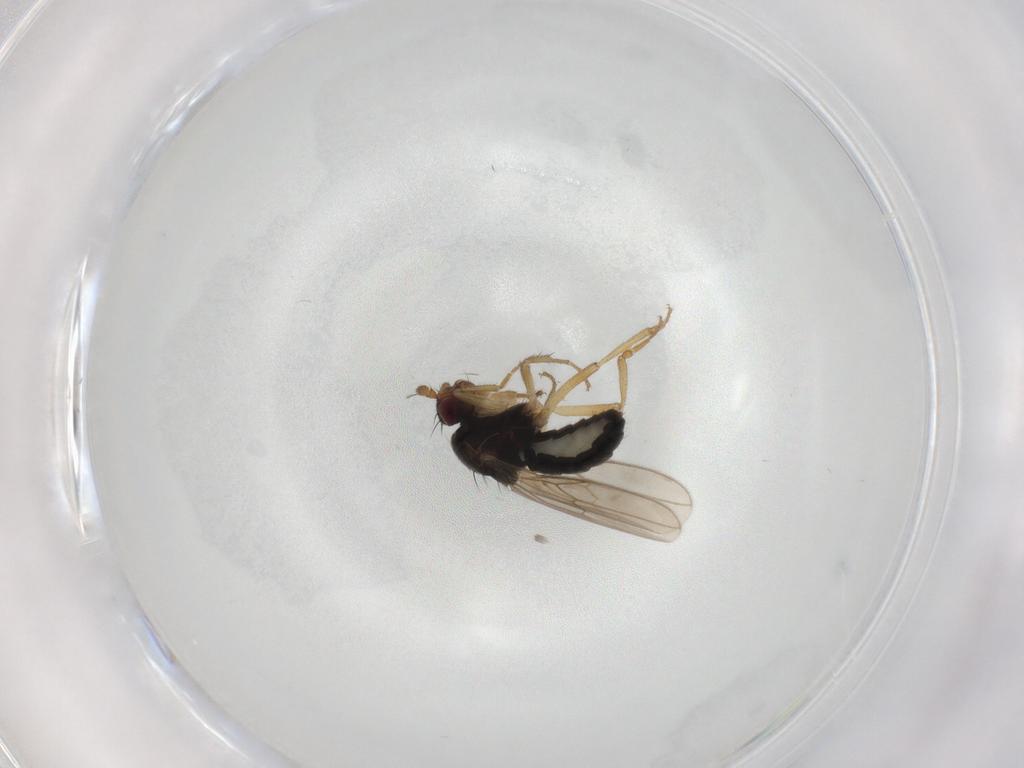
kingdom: Animalia
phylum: Arthropoda
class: Insecta
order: Diptera
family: Sphaeroceridae
